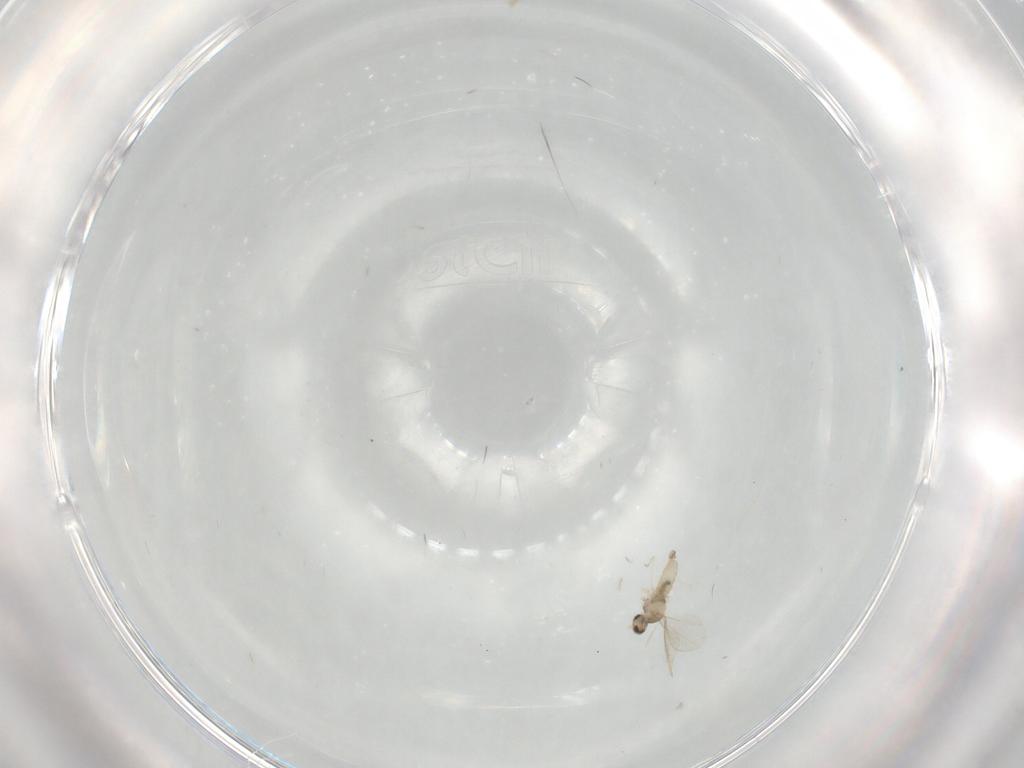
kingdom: Animalia
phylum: Arthropoda
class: Insecta
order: Diptera
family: Cecidomyiidae
